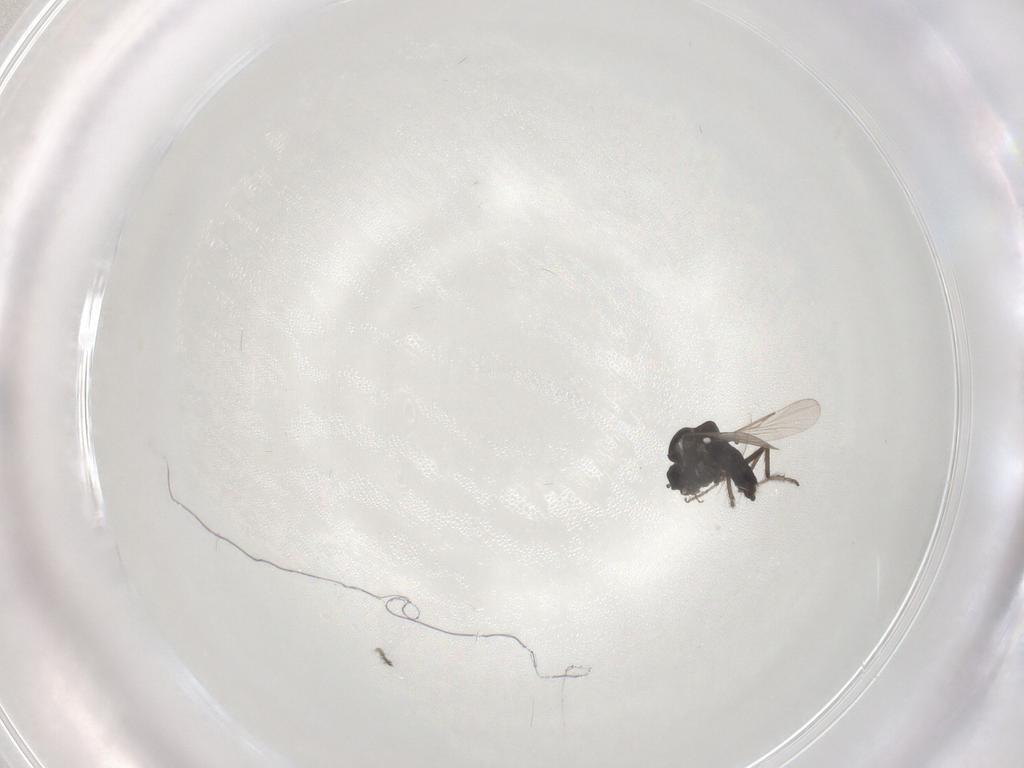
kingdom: Animalia
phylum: Arthropoda
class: Insecta
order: Diptera
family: Ceratopogonidae
